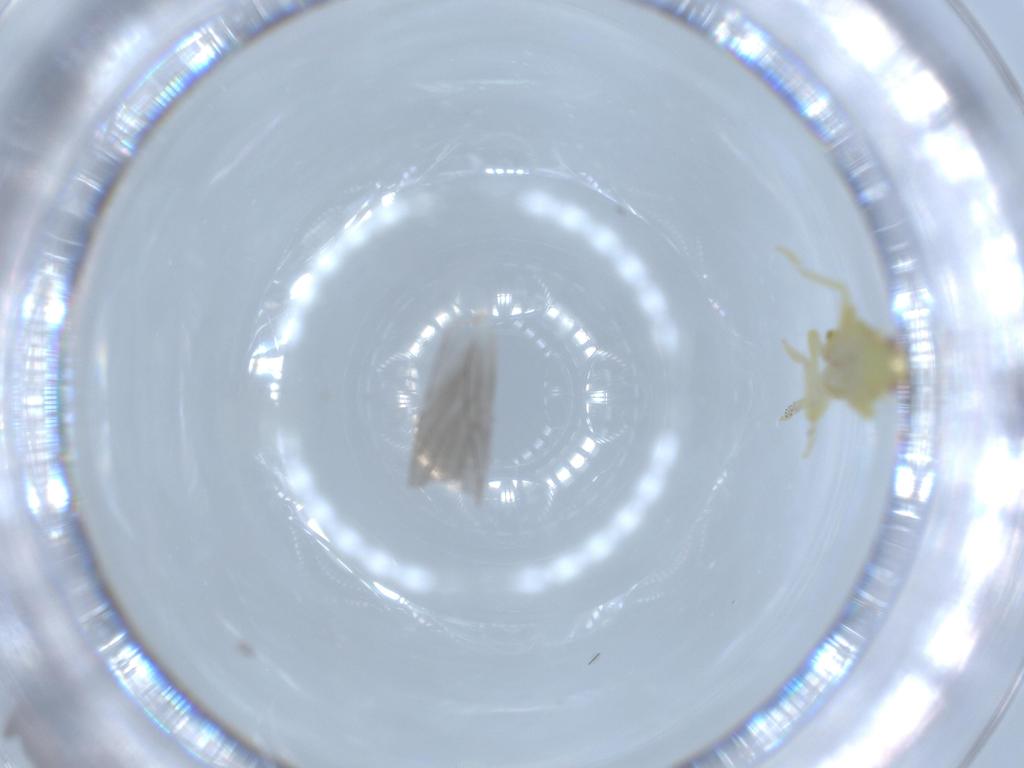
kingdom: Animalia
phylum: Arthropoda
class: Insecta
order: Hemiptera
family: Tropiduchidae
